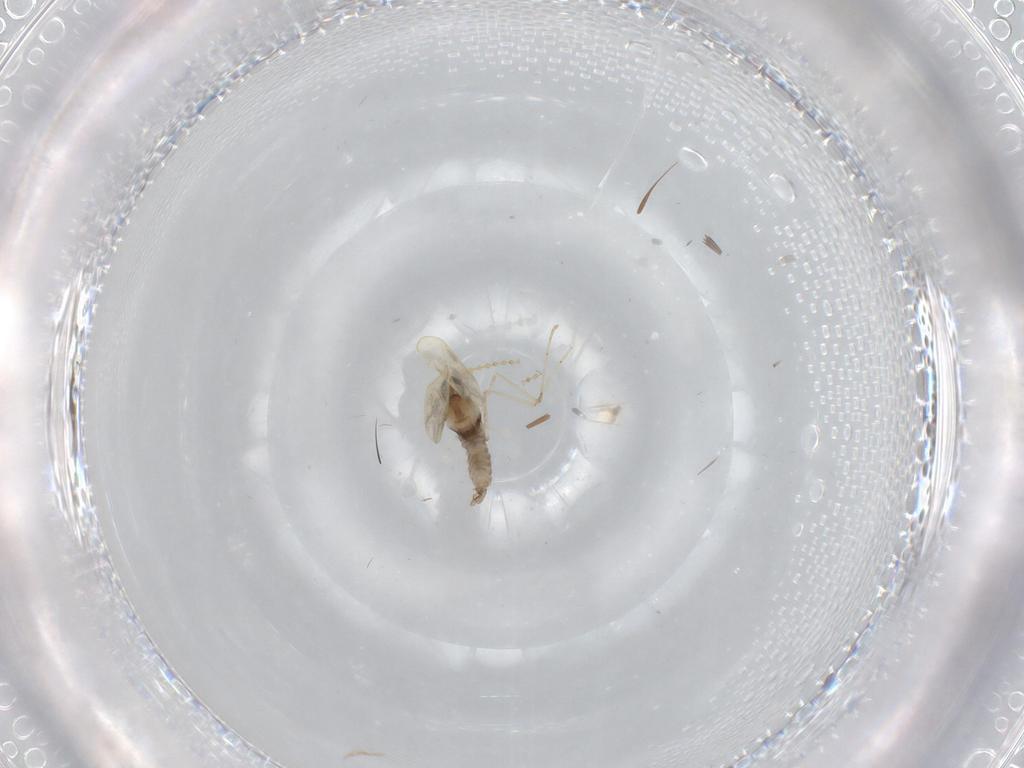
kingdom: Animalia
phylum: Arthropoda
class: Insecta
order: Diptera
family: Cecidomyiidae
